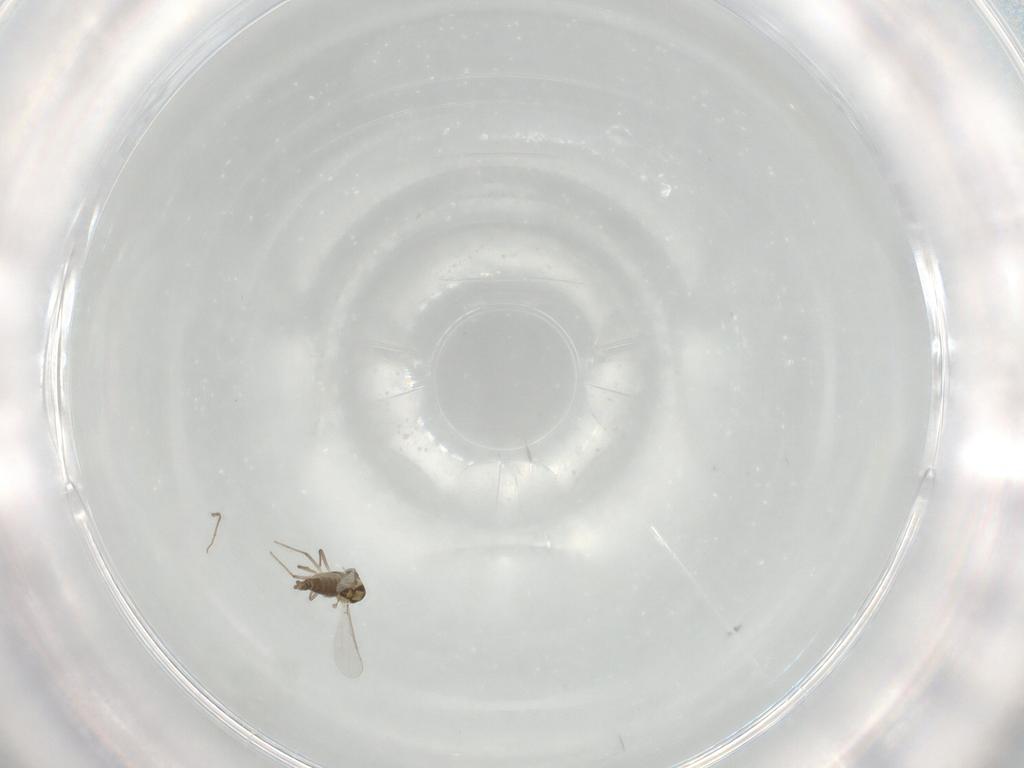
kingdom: Animalia
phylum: Arthropoda
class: Insecta
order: Diptera
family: Chironomidae
